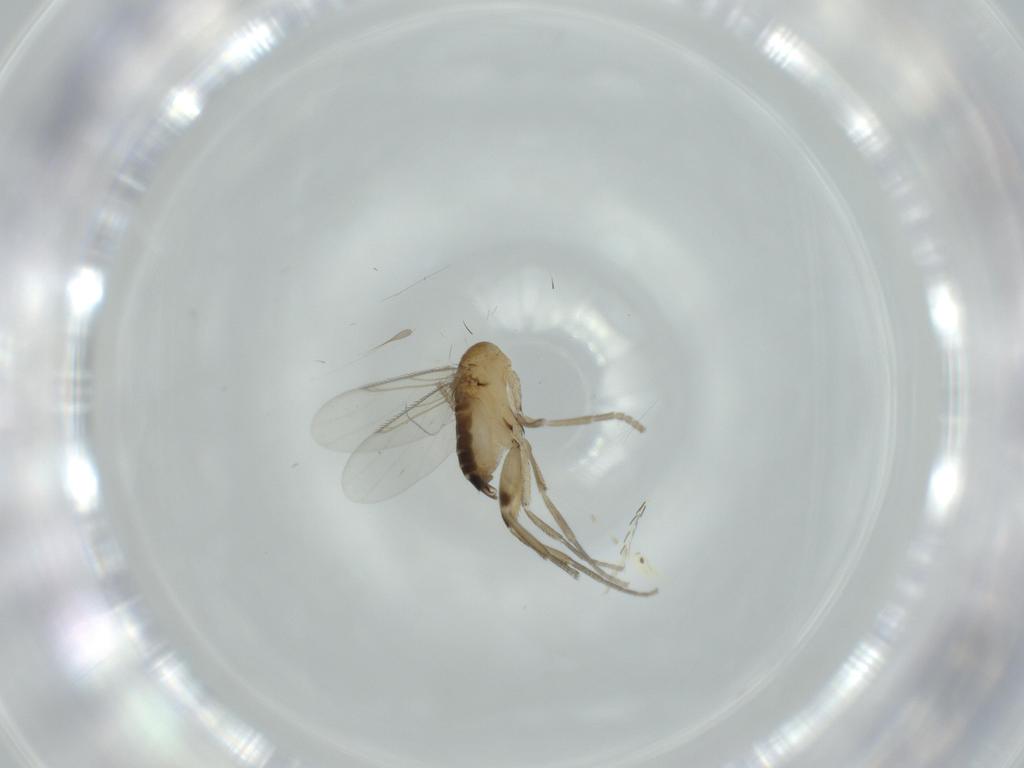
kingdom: Animalia
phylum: Arthropoda
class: Insecta
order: Diptera
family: Phoridae
